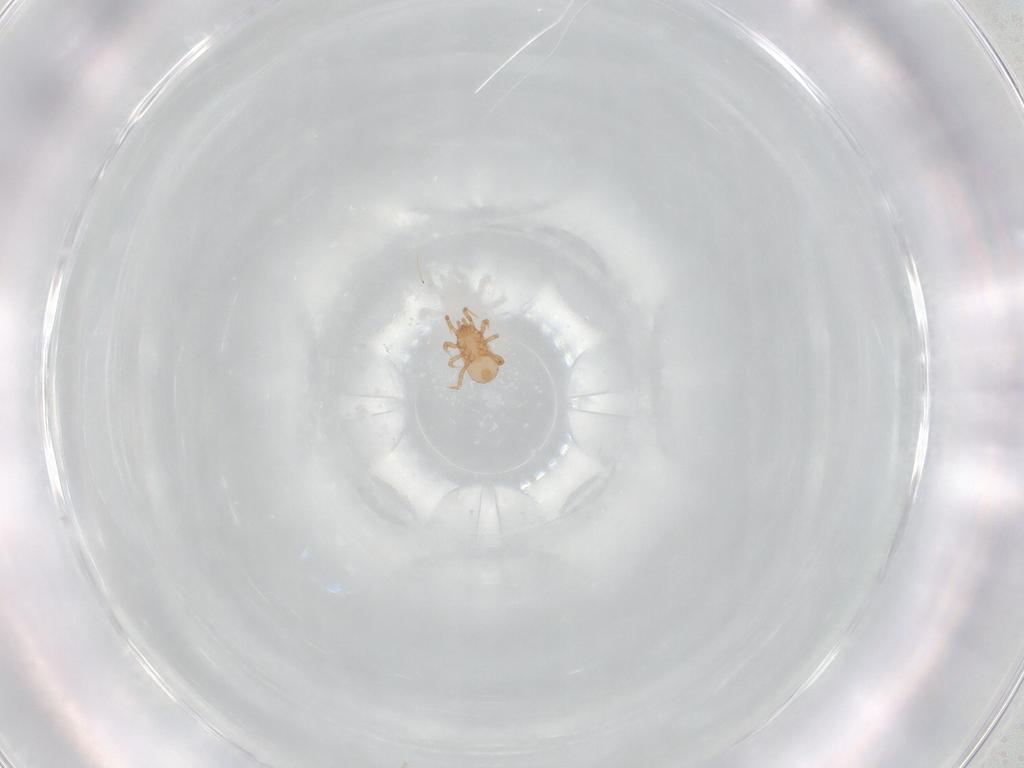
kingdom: Animalia
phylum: Arthropoda
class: Arachnida
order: Mesostigmata
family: Ascidae
